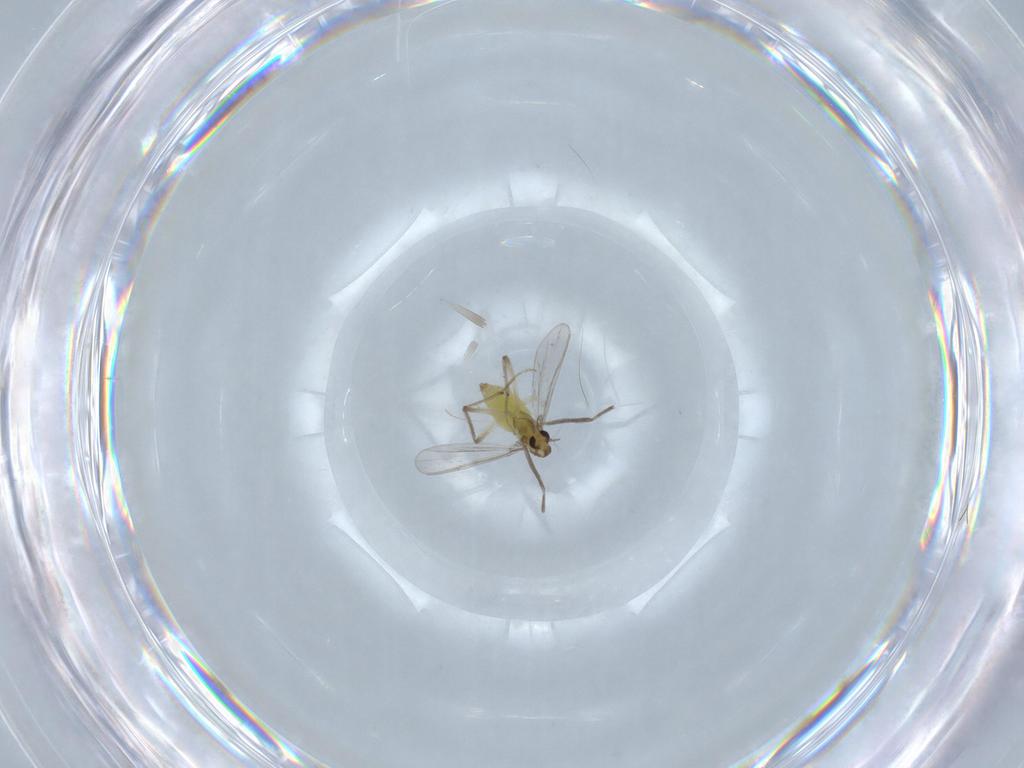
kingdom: Animalia
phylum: Arthropoda
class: Insecta
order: Diptera
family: Chironomidae
